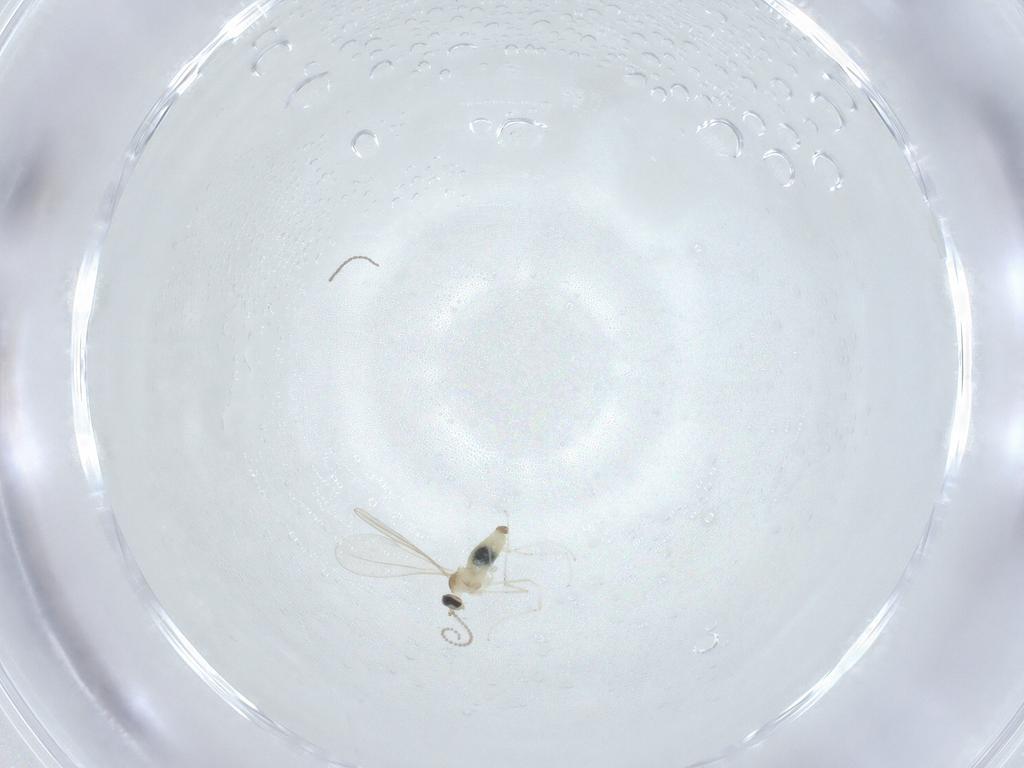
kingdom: Animalia
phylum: Arthropoda
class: Insecta
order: Diptera
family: Cecidomyiidae
